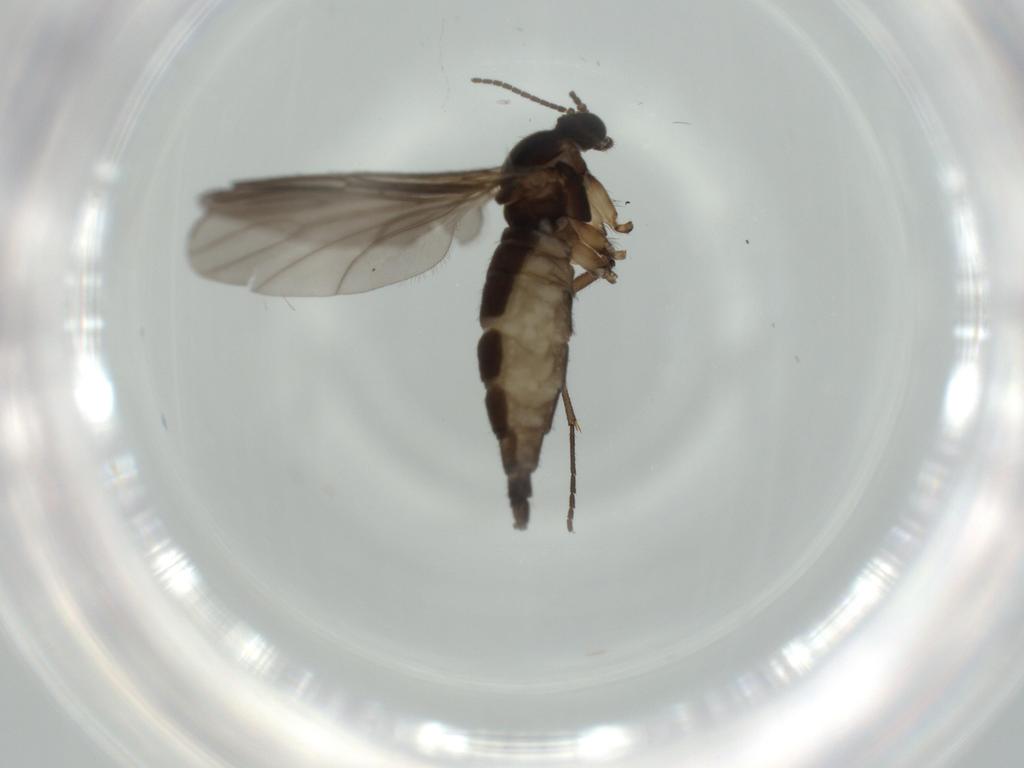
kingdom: Animalia
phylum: Arthropoda
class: Insecta
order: Diptera
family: Sciaridae
